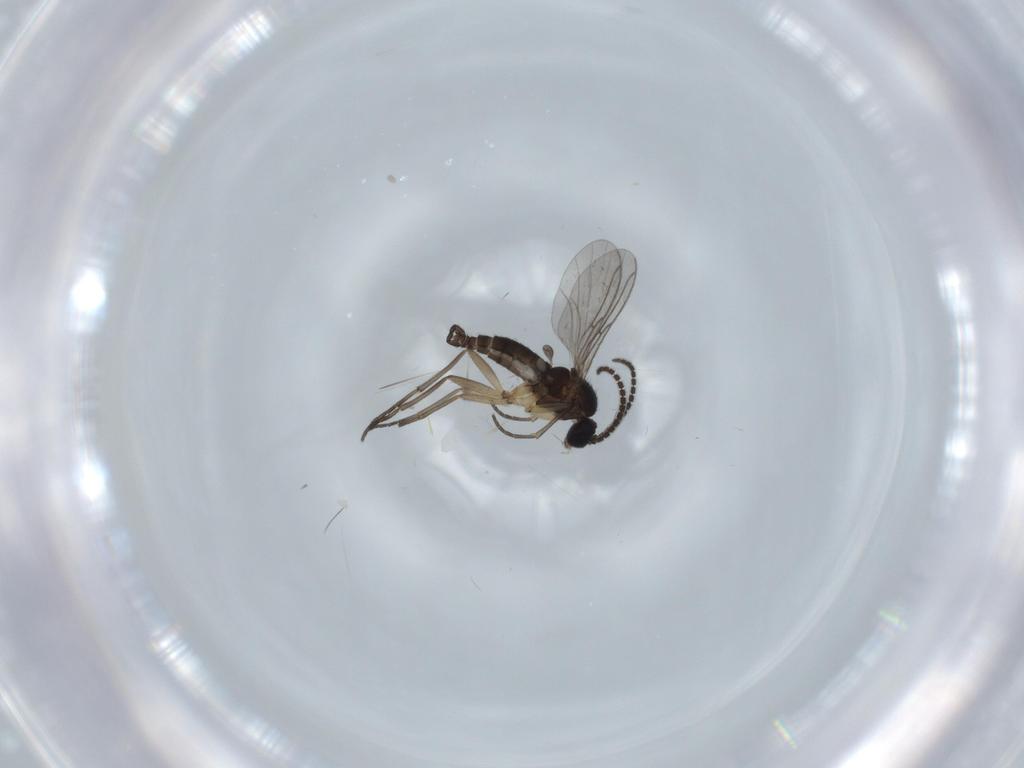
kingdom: Animalia
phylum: Arthropoda
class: Insecta
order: Diptera
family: Sciaridae
